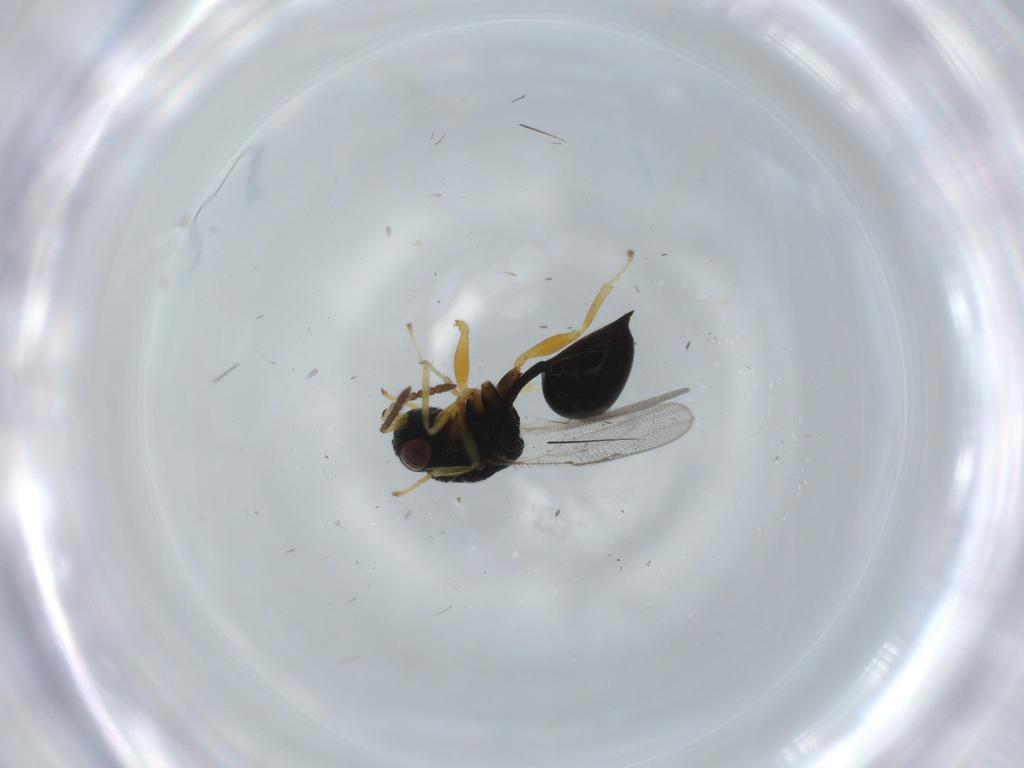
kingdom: Animalia
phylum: Arthropoda
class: Insecta
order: Hymenoptera
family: Eurytomidae
